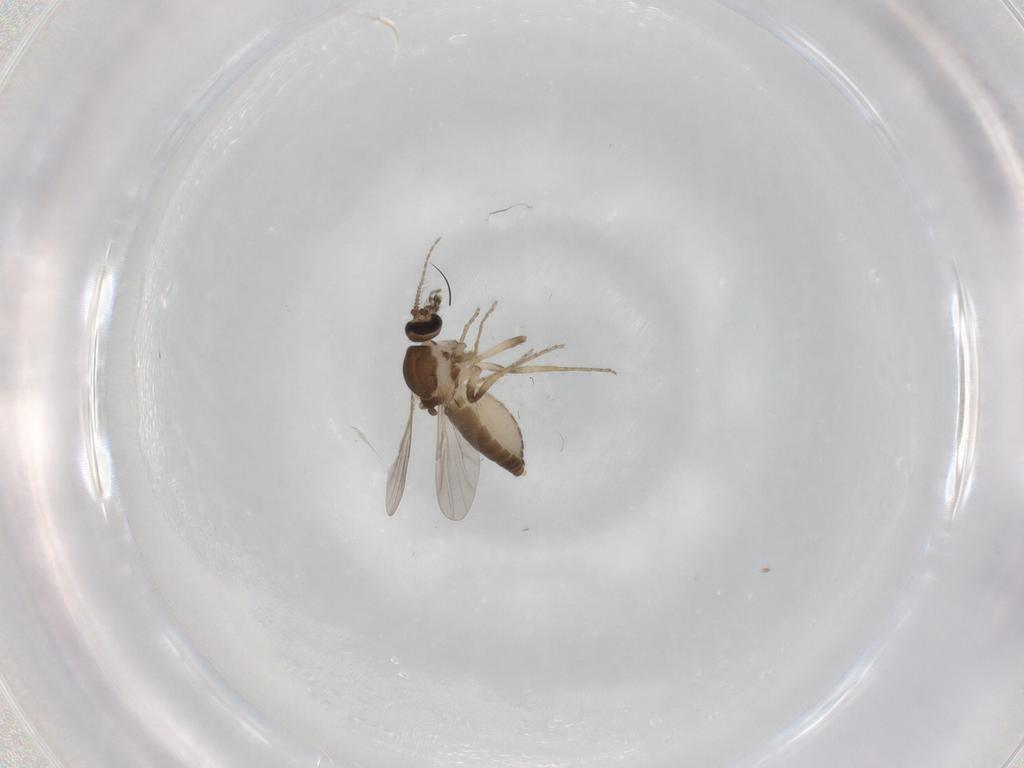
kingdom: Animalia
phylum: Arthropoda
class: Insecta
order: Diptera
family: Ceratopogonidae
